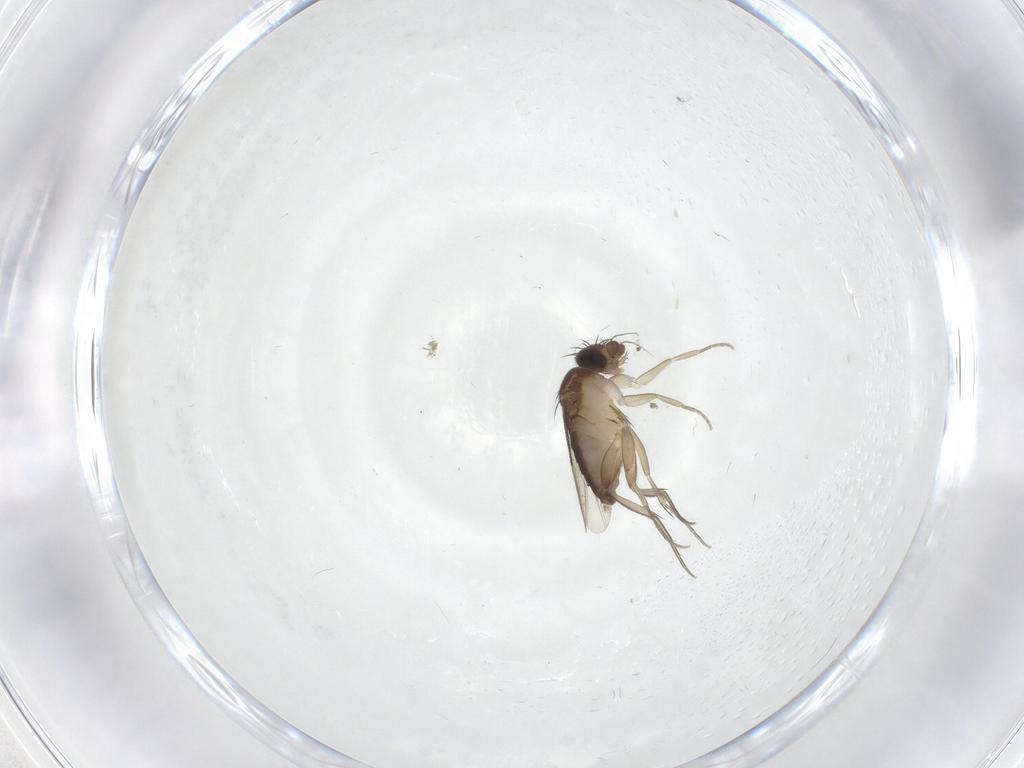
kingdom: Animalia
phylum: Arthropoda
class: Insecta
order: Diptera
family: Phoridae
